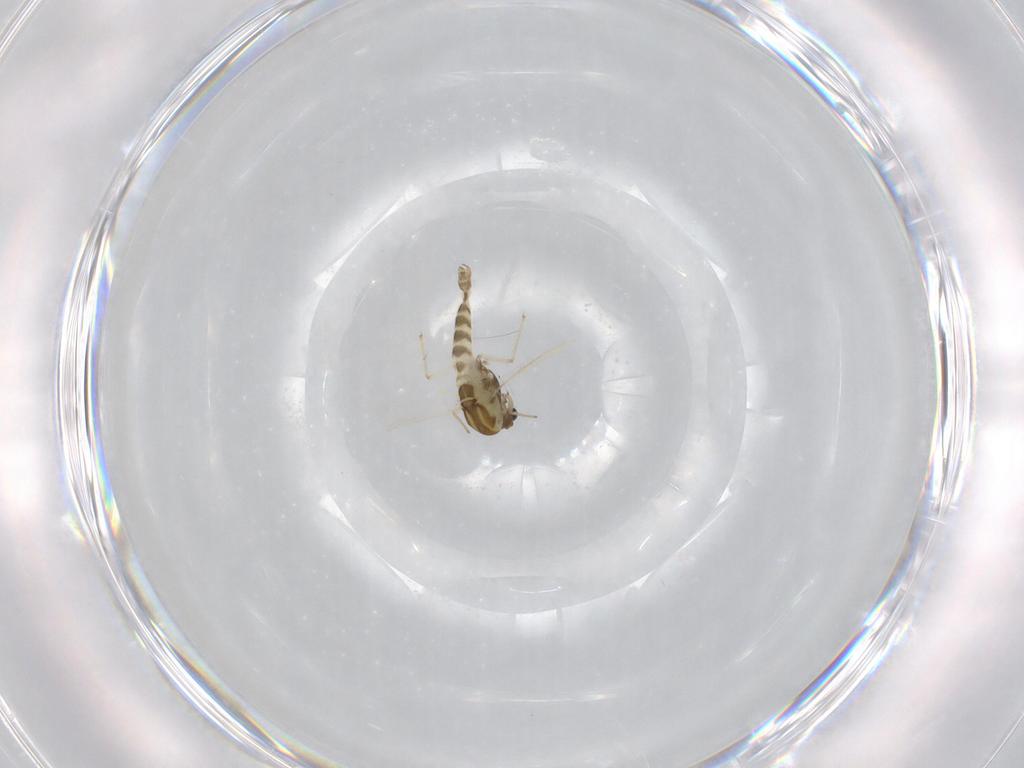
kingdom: Animalia
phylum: Arthropoda
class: Insecta
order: Diptera
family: Chironomidae
